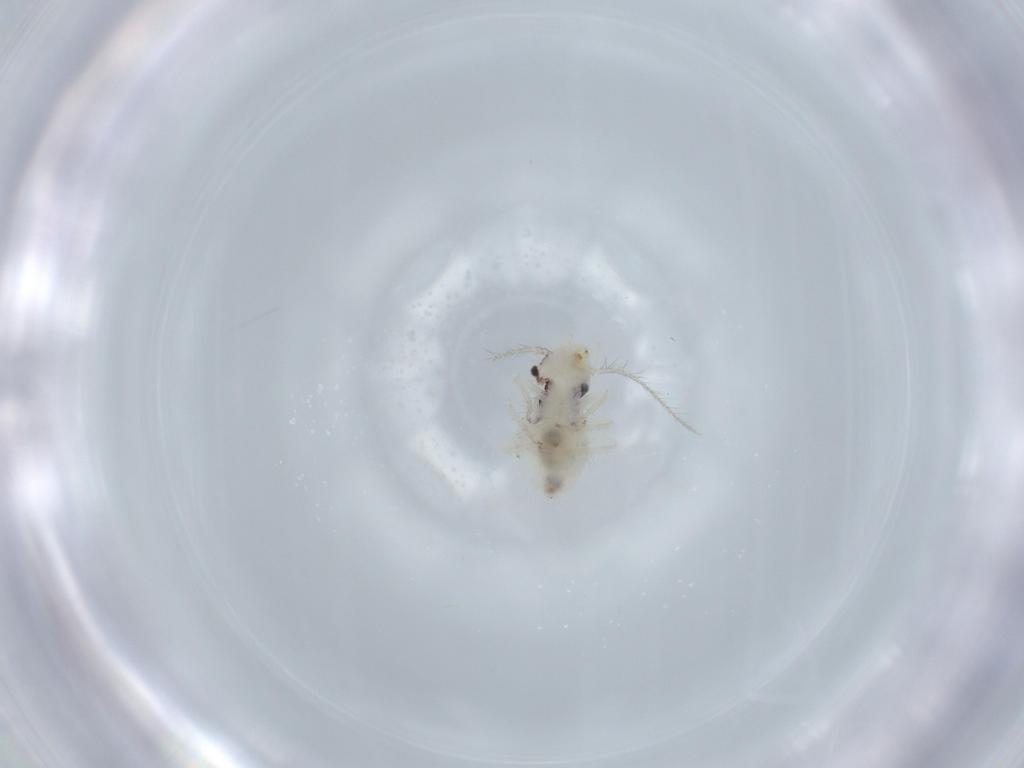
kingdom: Animalia
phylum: Arthropoda
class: Insecta
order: Psocodea
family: Pseudocaeciliidae
